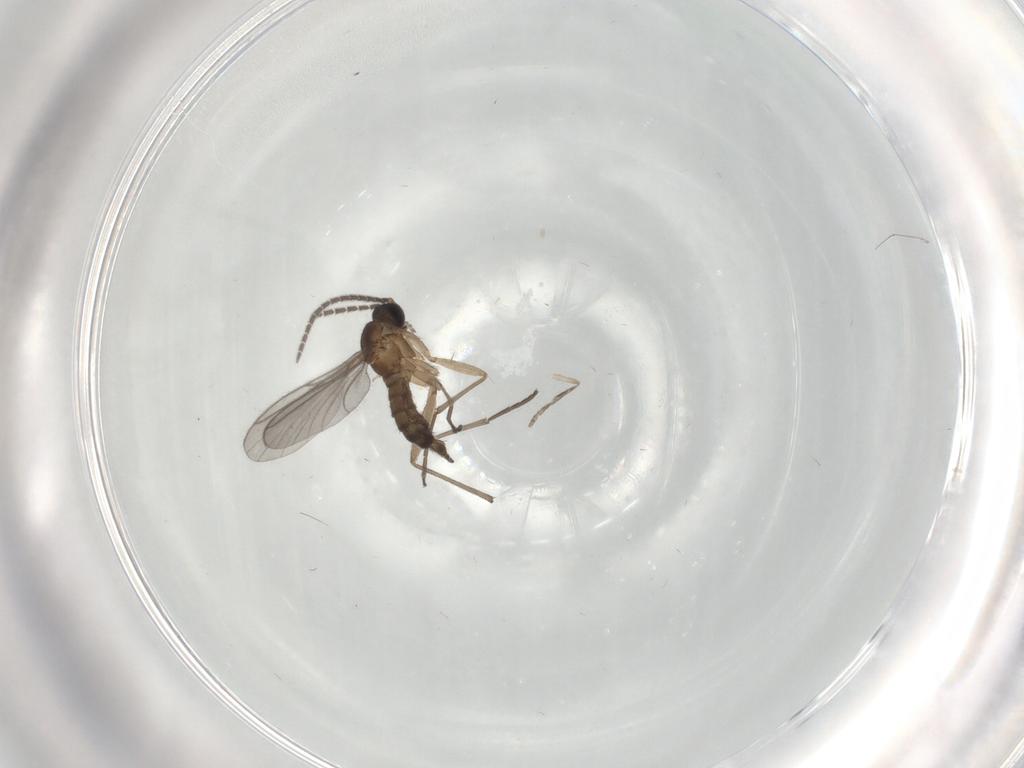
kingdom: Animalia
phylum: Arthropoda
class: Insecta
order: Diptera
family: Sciaridae
